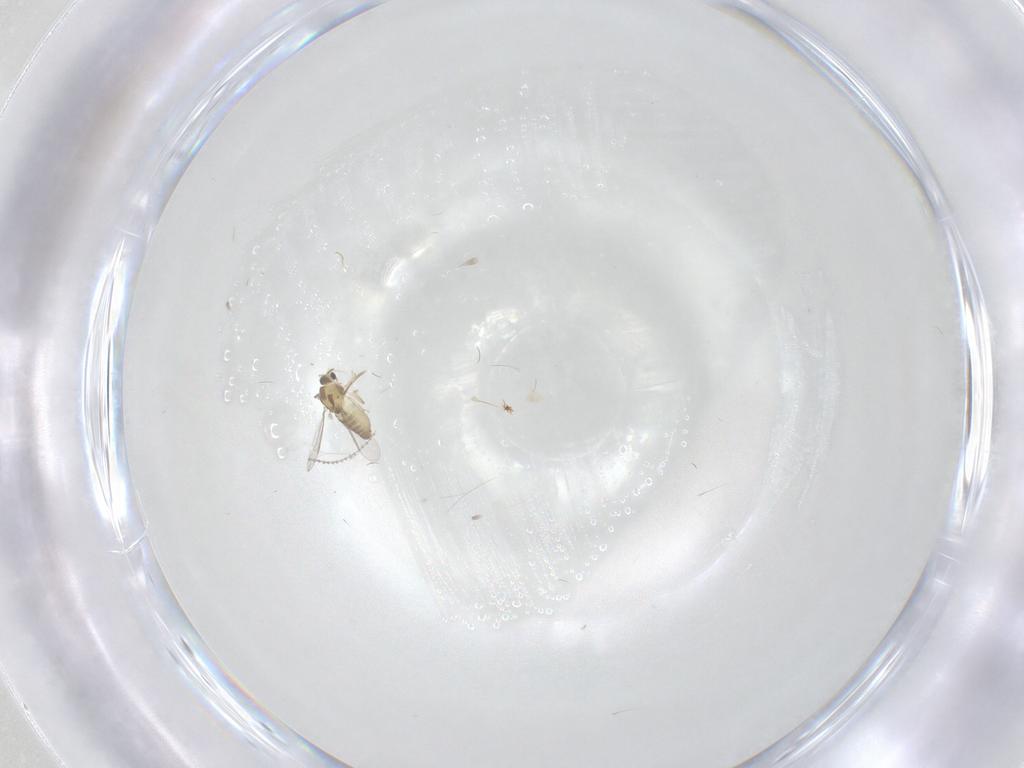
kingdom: Animalia
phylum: Arthropoda
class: Insecta
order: Diptera
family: Chironomidae
